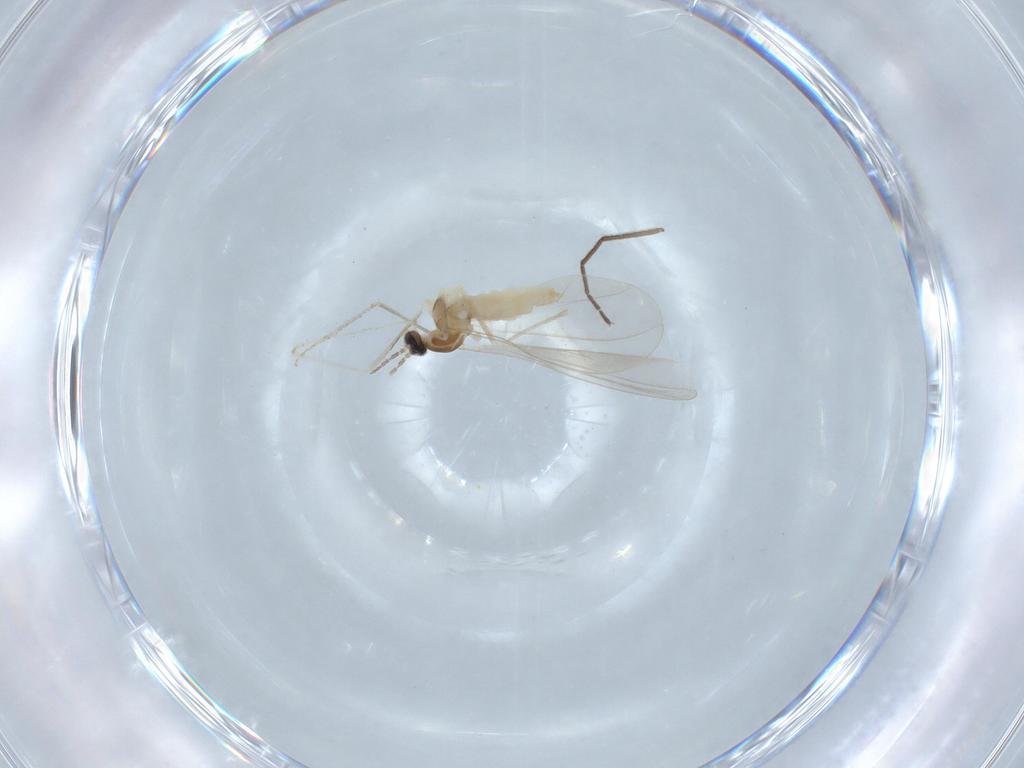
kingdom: Animalia
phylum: Arthropoda
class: Insecta
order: Diptera
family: Cecidomyiidae
